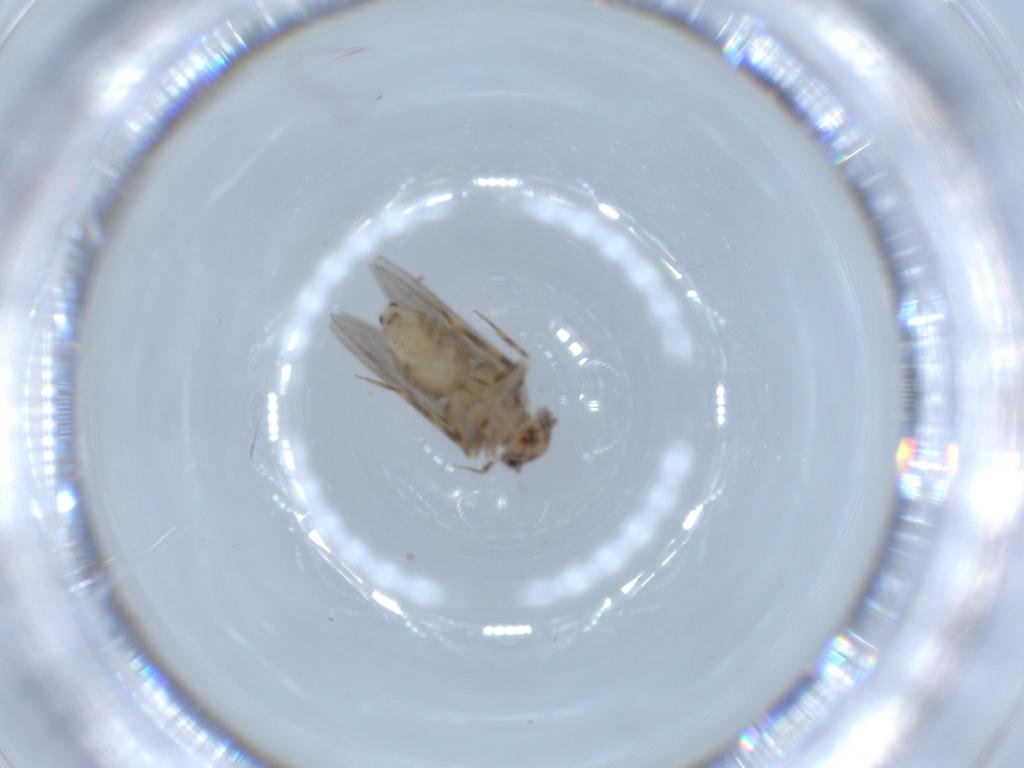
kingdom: Animalia
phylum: Arthropoda
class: Insecta
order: Psocodea
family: Lepidopsocidae
